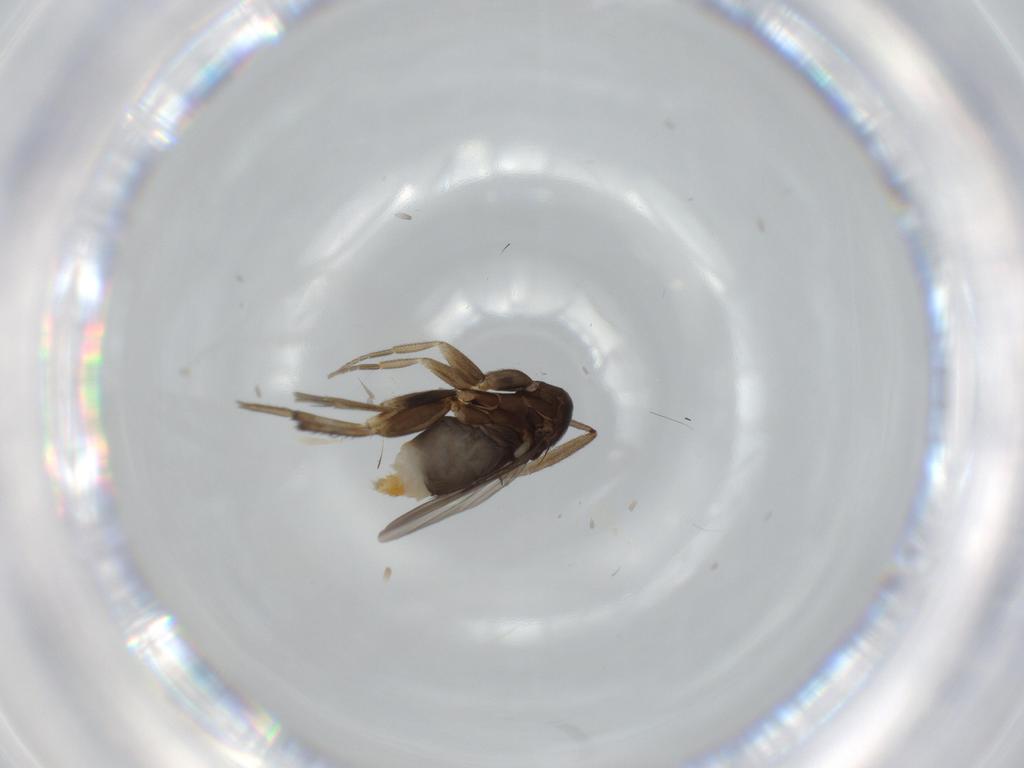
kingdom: Animalia
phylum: Arthropoda
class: Insecta
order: Diptera
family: Phoridae
